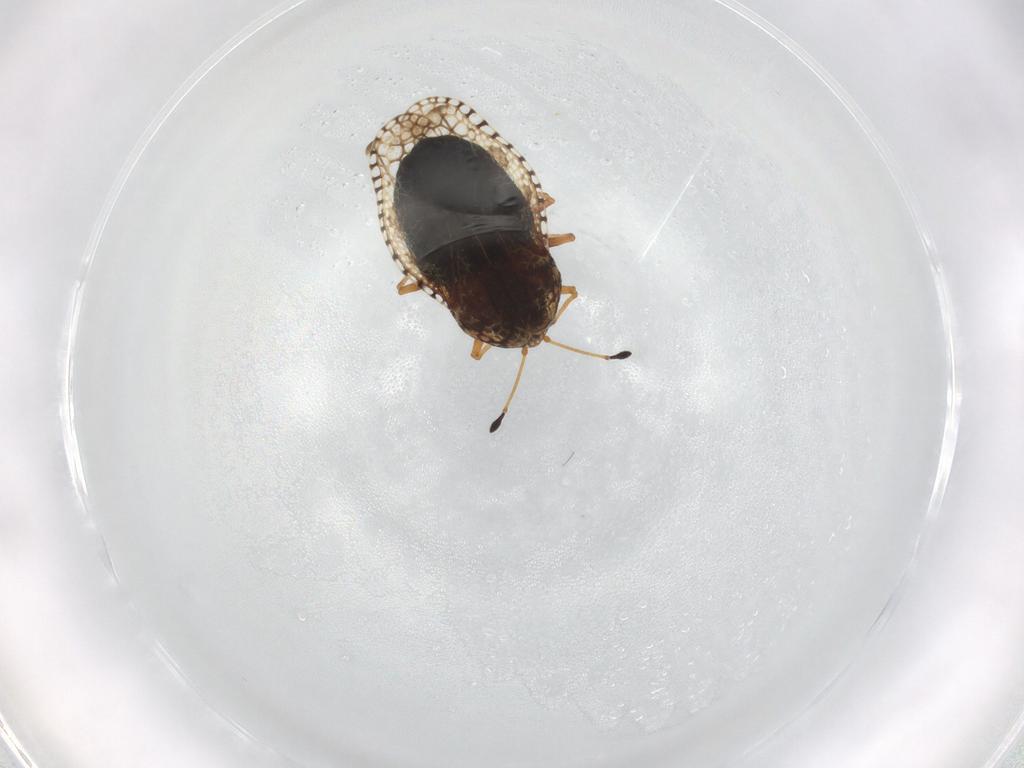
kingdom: Animalia
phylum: Arthropoda
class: Insecta
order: Hemiptera
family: Tingidae
